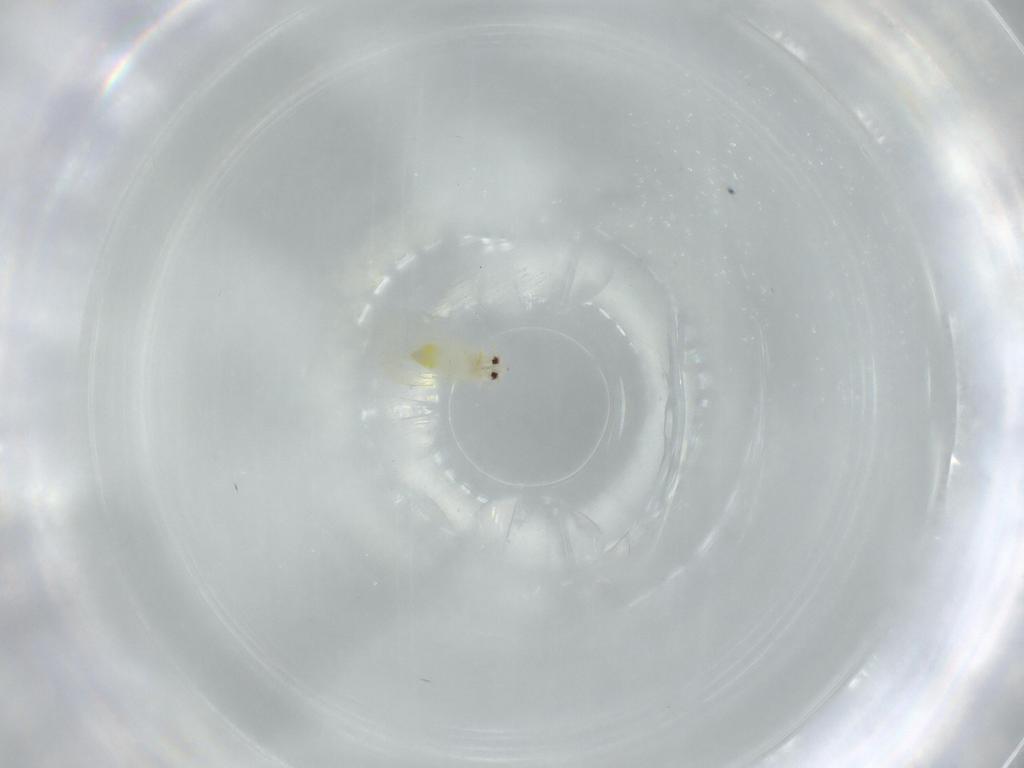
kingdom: Animalia
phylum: Arthropoda
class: Insecta
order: Hemiptera
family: Aleyrodidae
